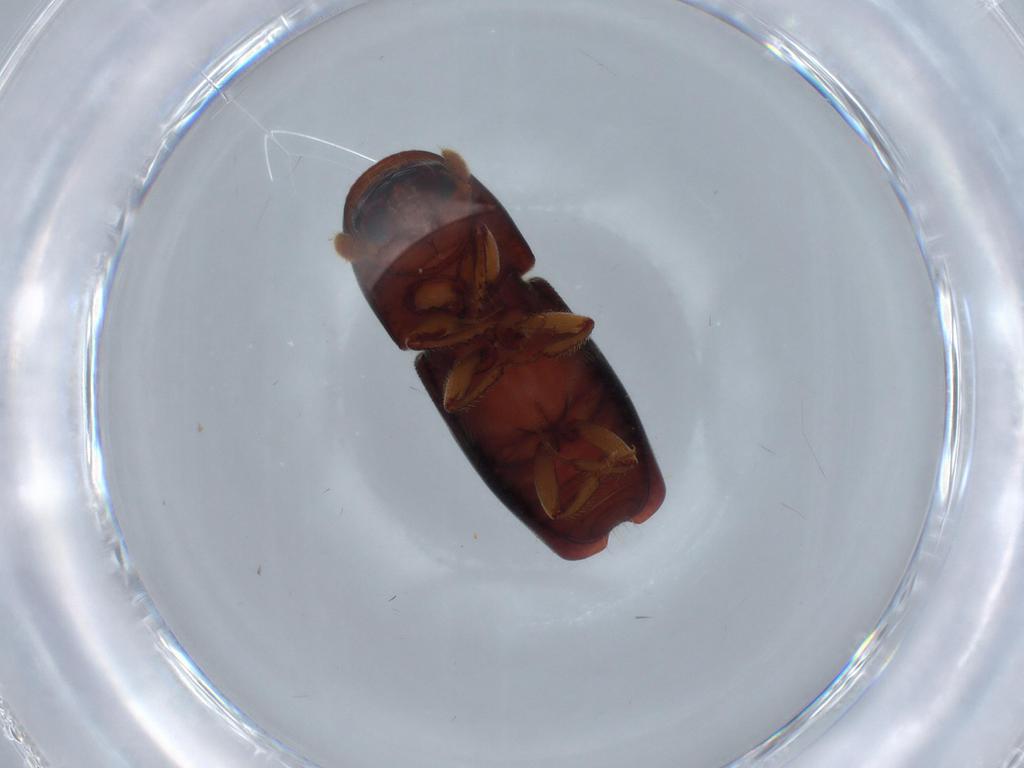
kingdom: Animalia
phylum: Arthropoda
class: Insecta
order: Coleoptera
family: Curculionidae
